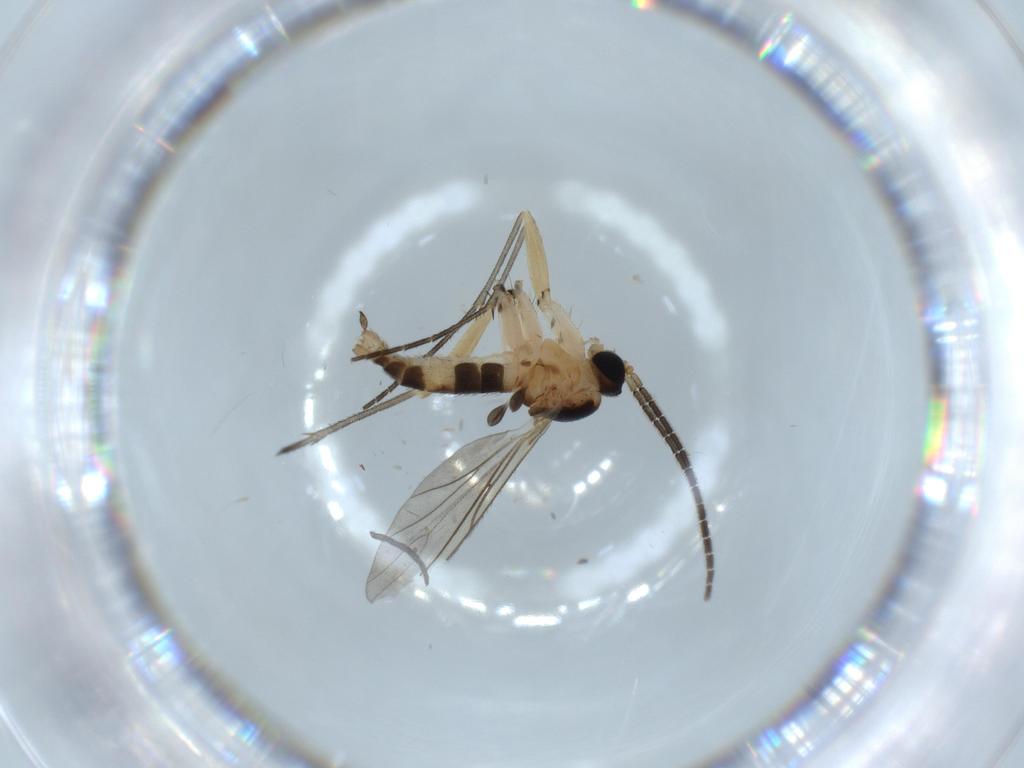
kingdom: Animalia
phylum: Arthropoda
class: Insecta
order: Diptera
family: Sciaridae
